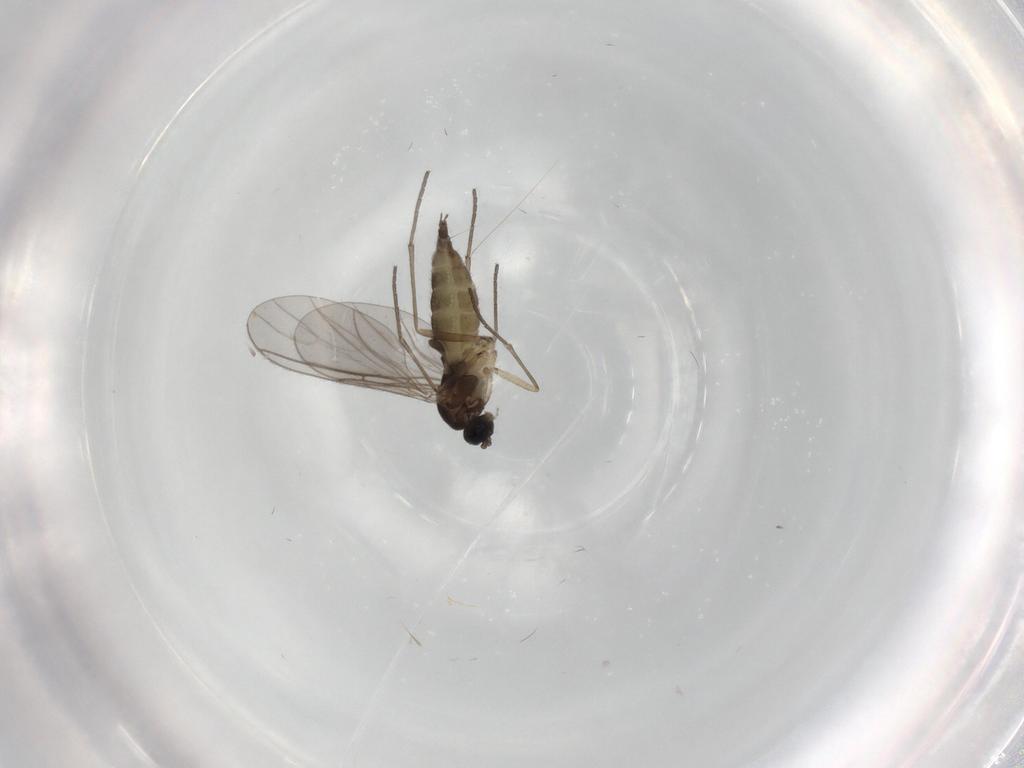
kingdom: Animalia
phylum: Arthropoda
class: Insecta
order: Diptera
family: Sciaridae
